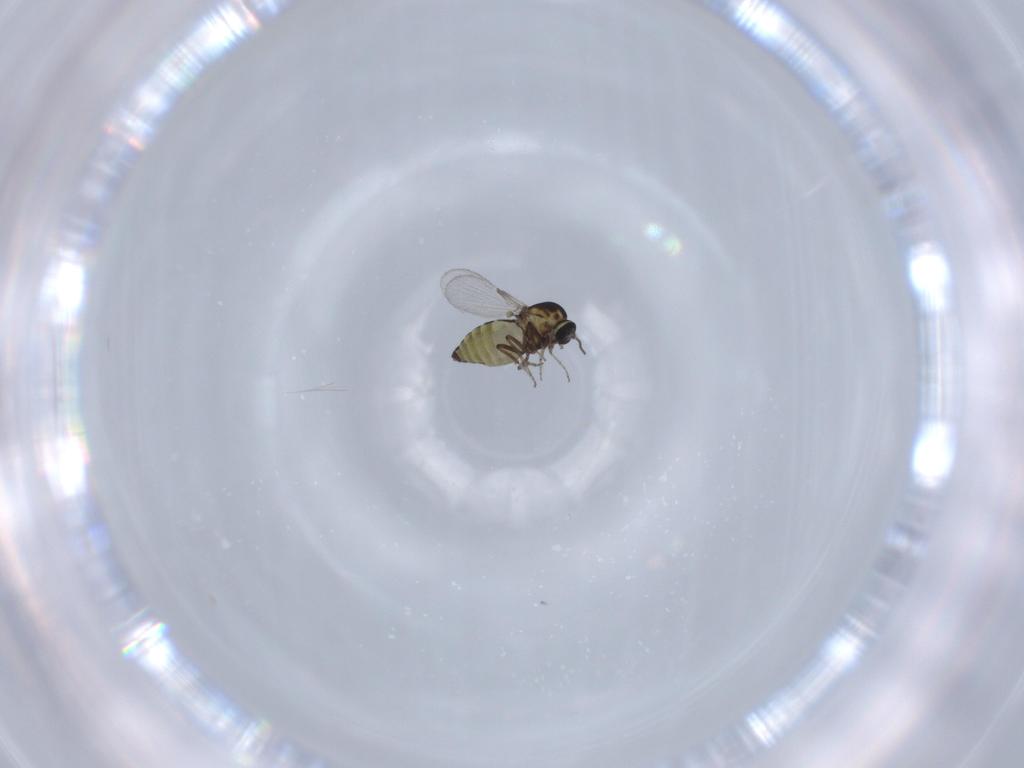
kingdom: Animalia
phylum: Arthropoda
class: Insecta
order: Diptera
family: Ceratopogonidae
